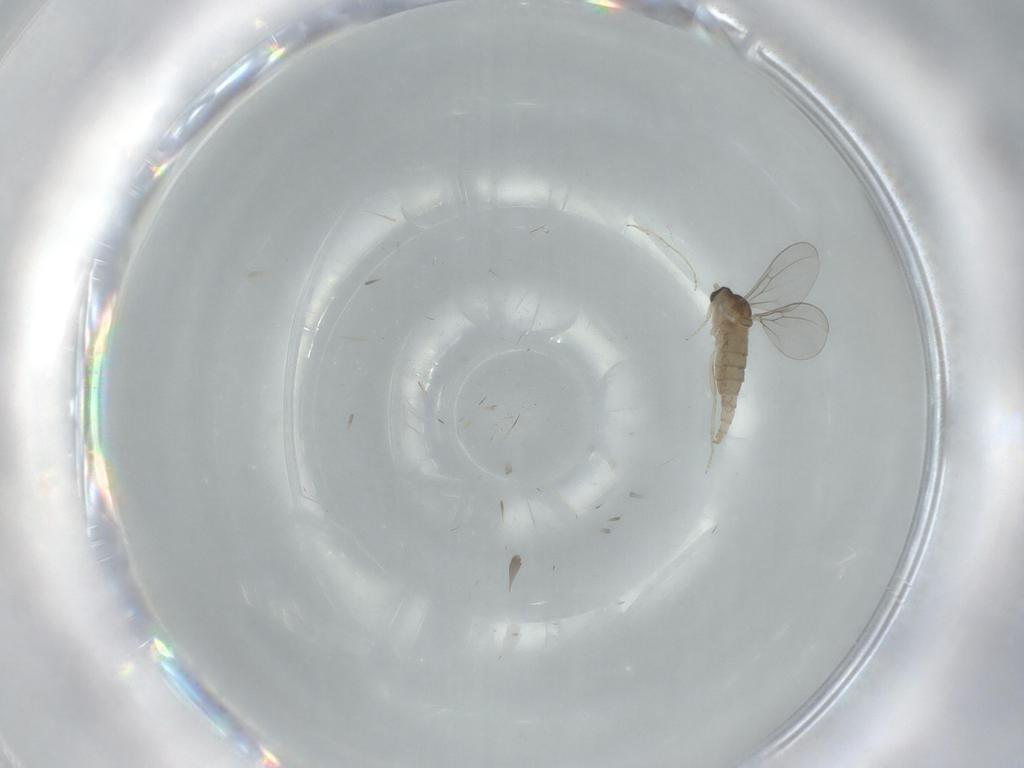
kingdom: Animalia
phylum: Arthropoda
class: Insecta
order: Diptera
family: Cecidomyiidae
